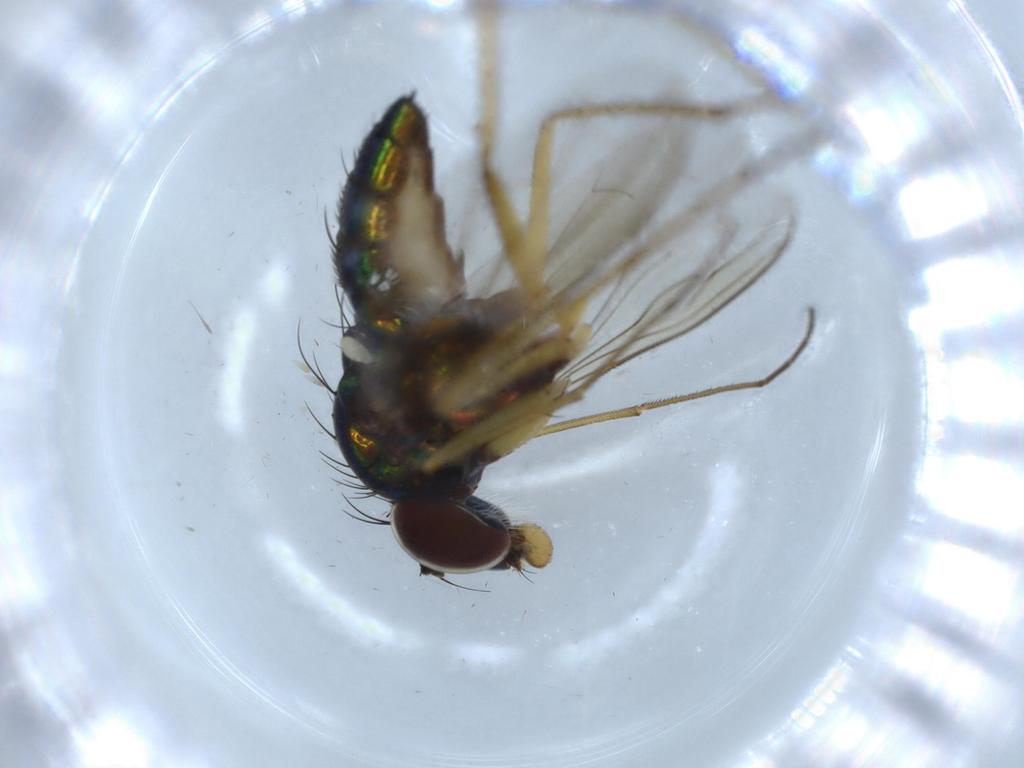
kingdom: Animalia
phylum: Arthropoda
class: Insecta
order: Diptera
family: Dolichopodidae
